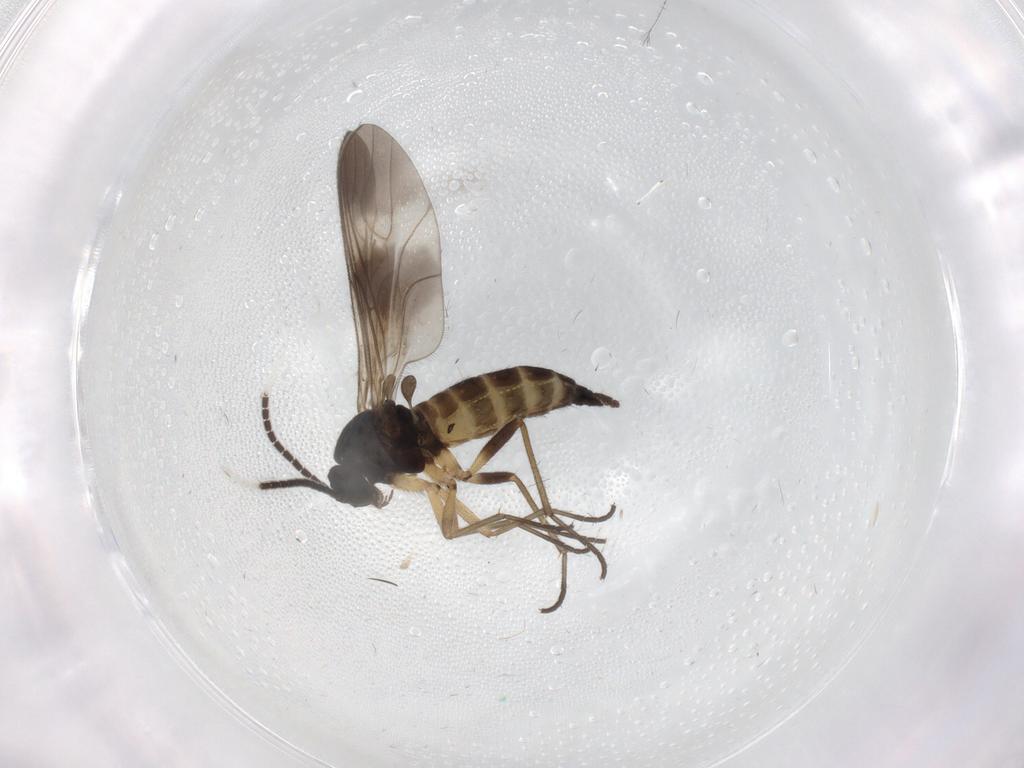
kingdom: Animalia
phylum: Arthropoda
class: Insecta
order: Diptera
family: Sciaridae
